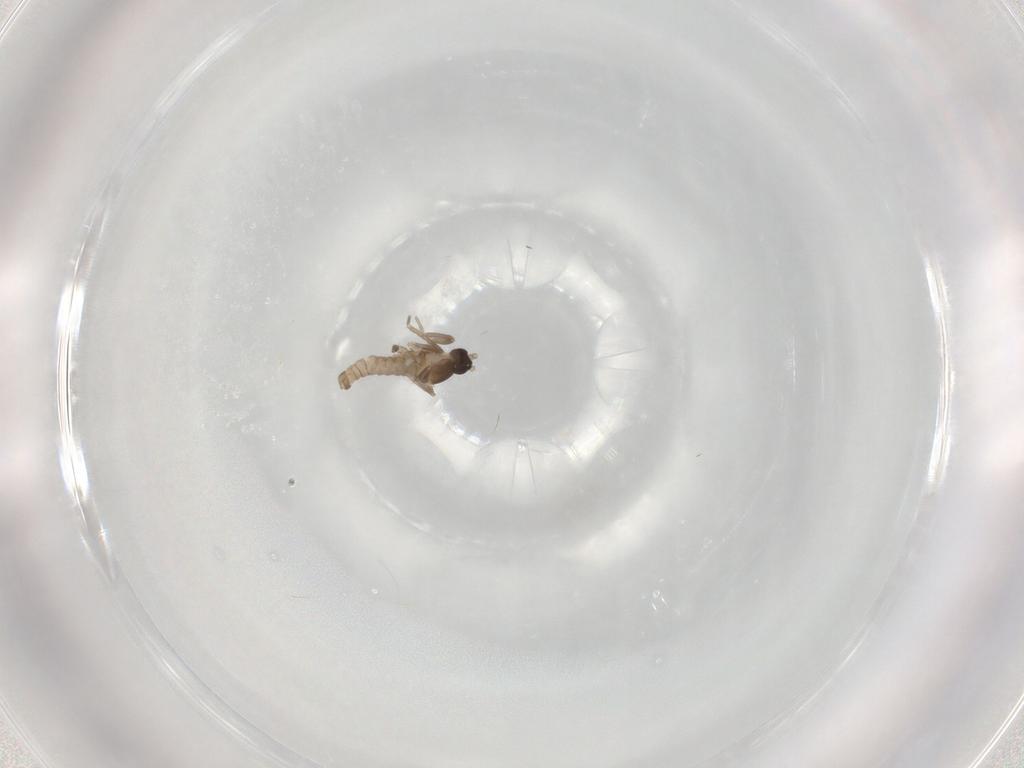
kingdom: Animalia
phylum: Arthropoda
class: Insecta
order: Diptera
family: Cecidomyiidae
